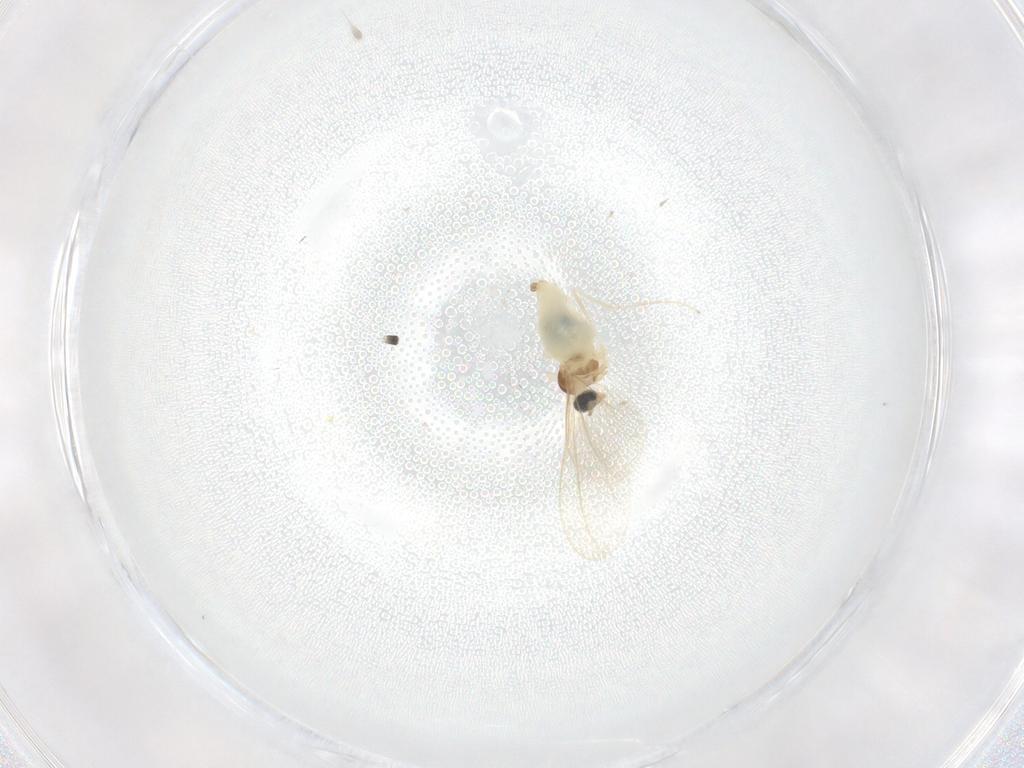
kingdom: Animalia
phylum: Arthropoda
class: Insecta
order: Diptera
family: Cecidomyiidae
